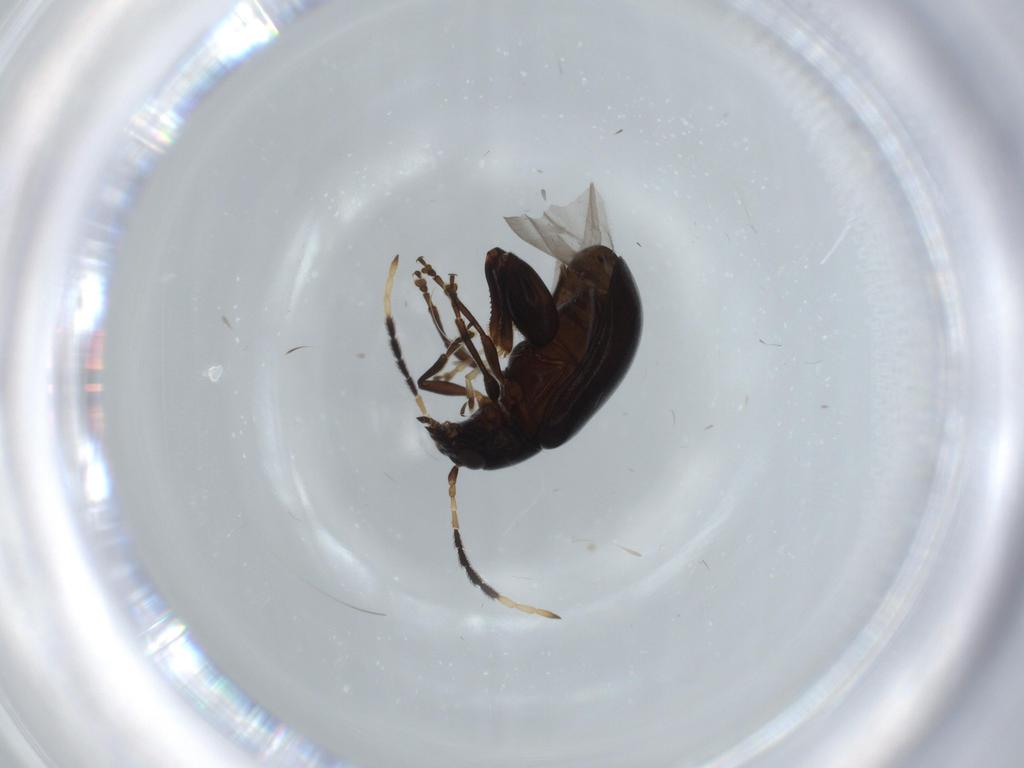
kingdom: Animalia
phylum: Arthropoda
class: Insecta
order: Coleoptera
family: Chrysomelidae
